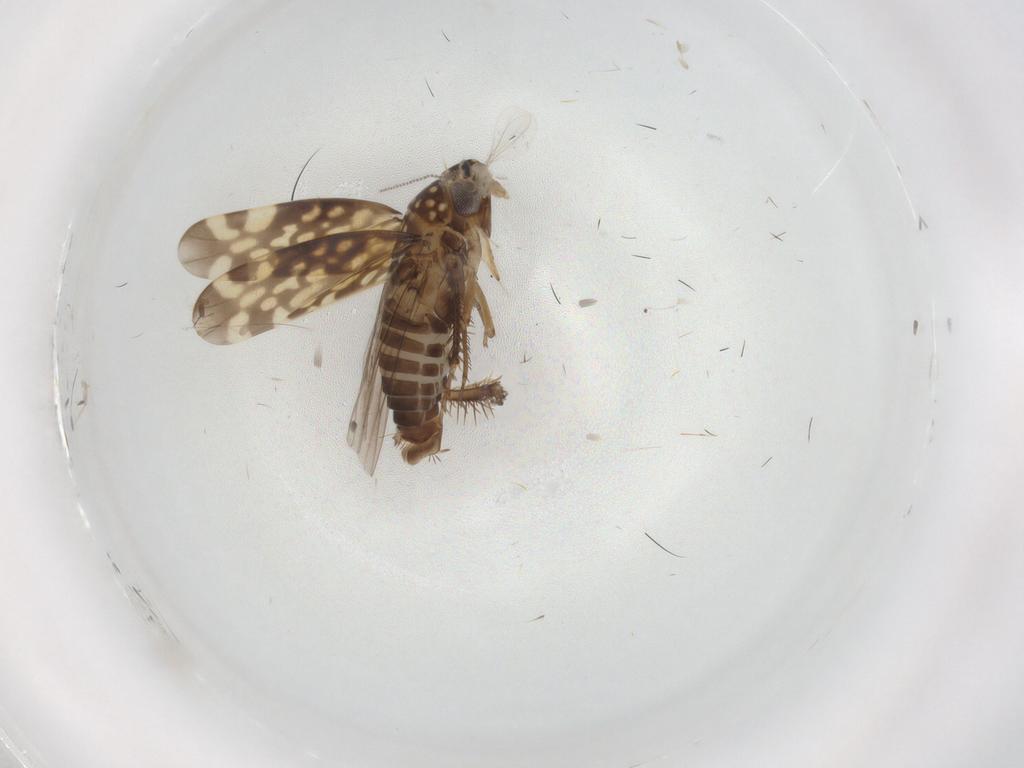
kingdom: Animalia
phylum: Arthropoda
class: Insecta
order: Hemiptera
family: Cicadellidae
